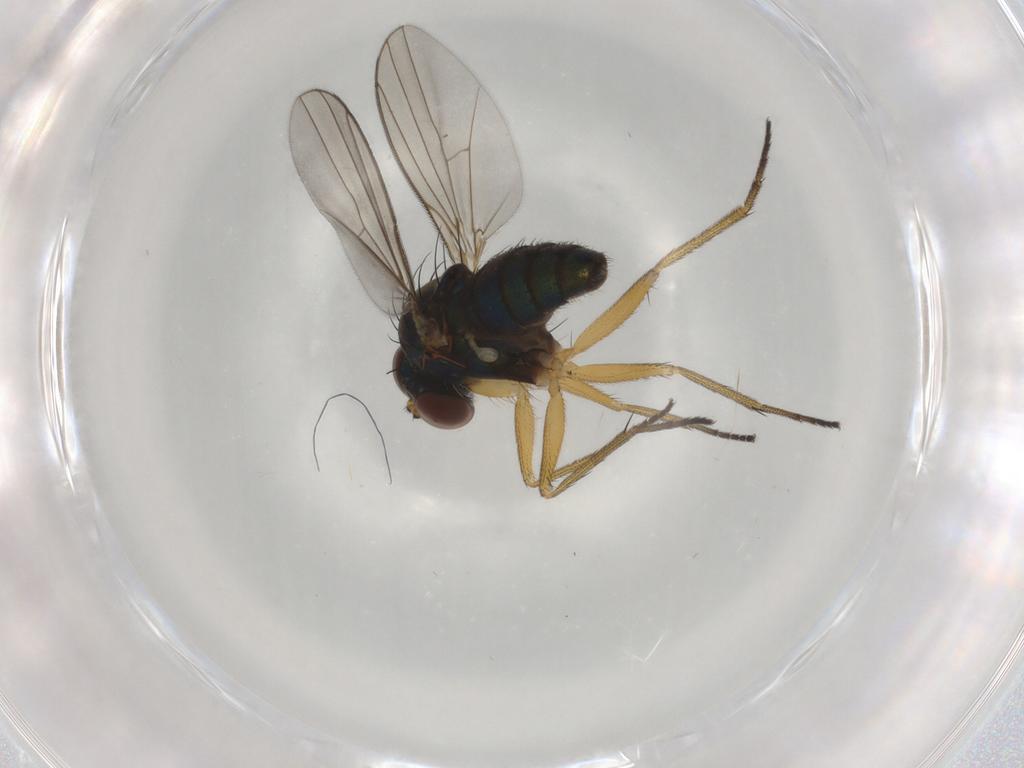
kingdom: Animalia
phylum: Arthropoda
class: Insecta
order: Diptera
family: Dolichopodidae
